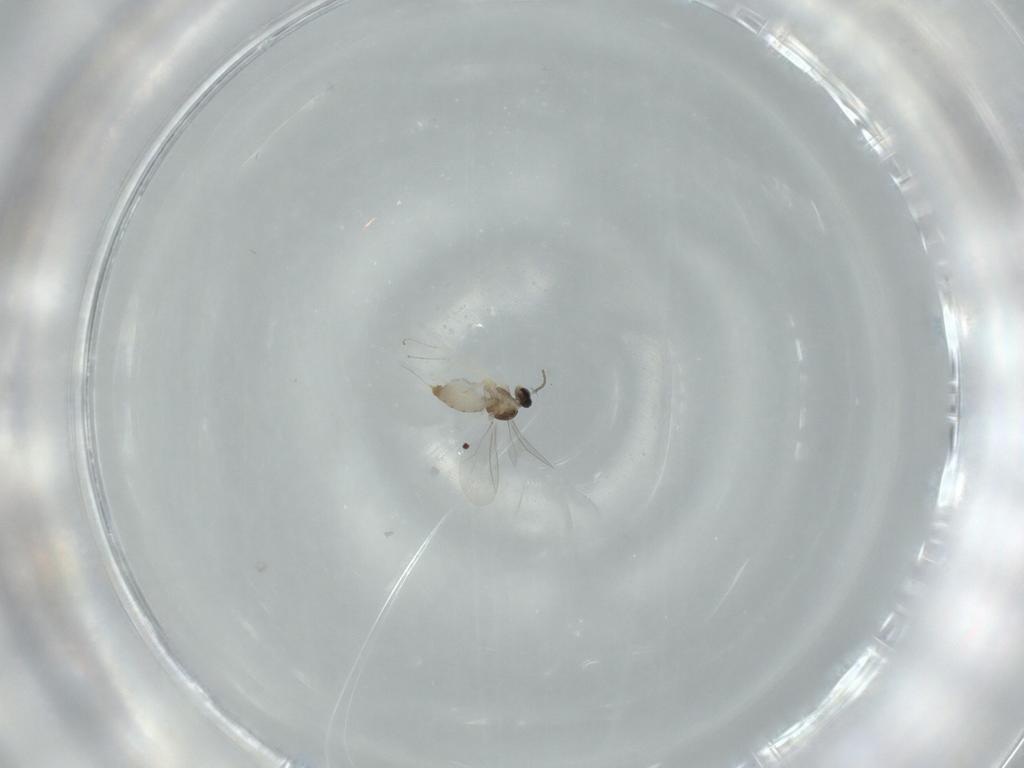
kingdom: Animalia
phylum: Arthropoda
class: Insecta
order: Diptera
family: Cecidomyiidae
